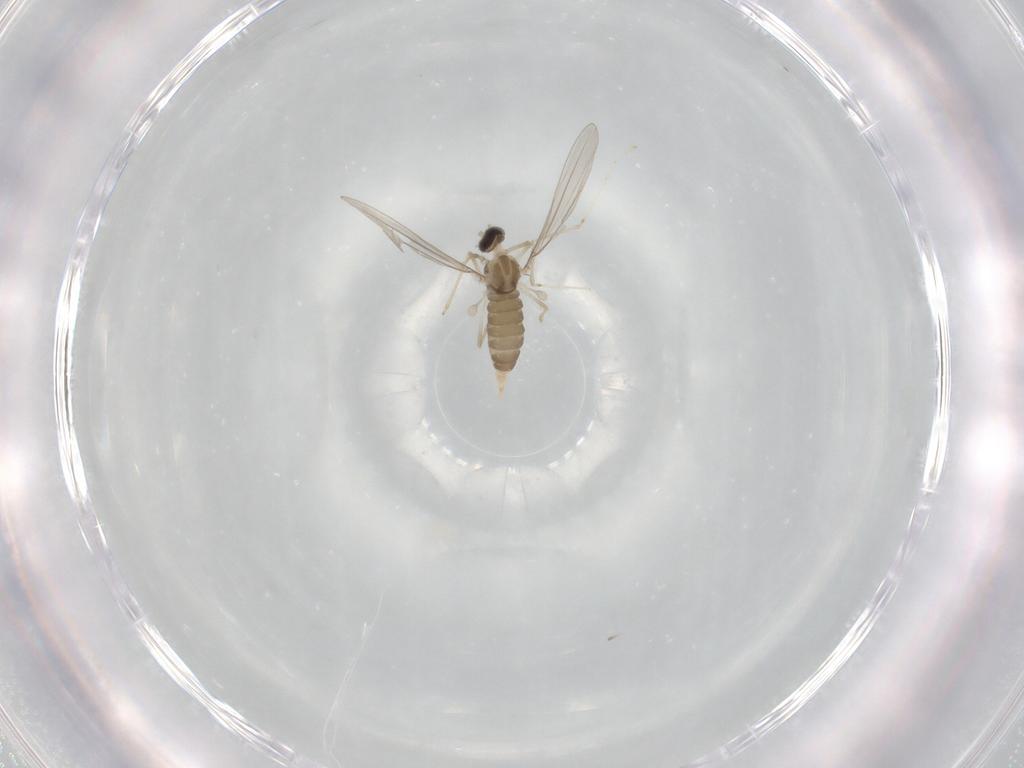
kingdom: Animalia
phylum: Arthropoda
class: Insecta
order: Diptera
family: Cecidomyiidae
